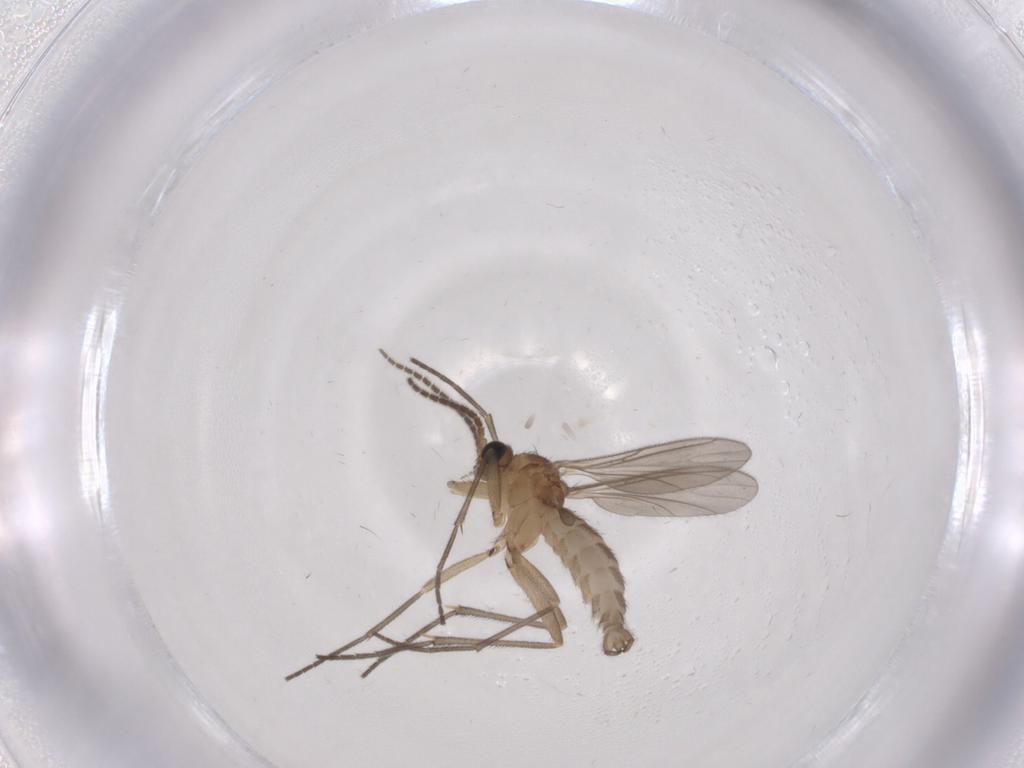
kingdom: Animalia
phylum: Arthropoda
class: Insecta
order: Diptera
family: Sciaridae
